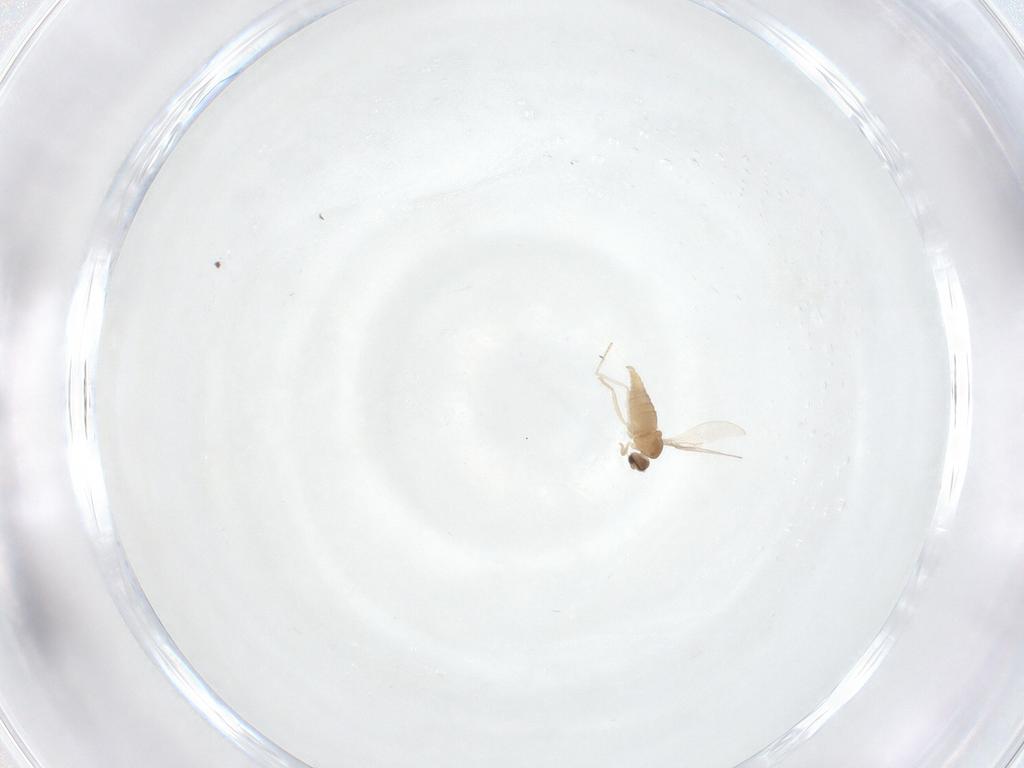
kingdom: Animalia
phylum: Arthropoda
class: Insecta
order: Diptera
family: Cecidomyiidae
